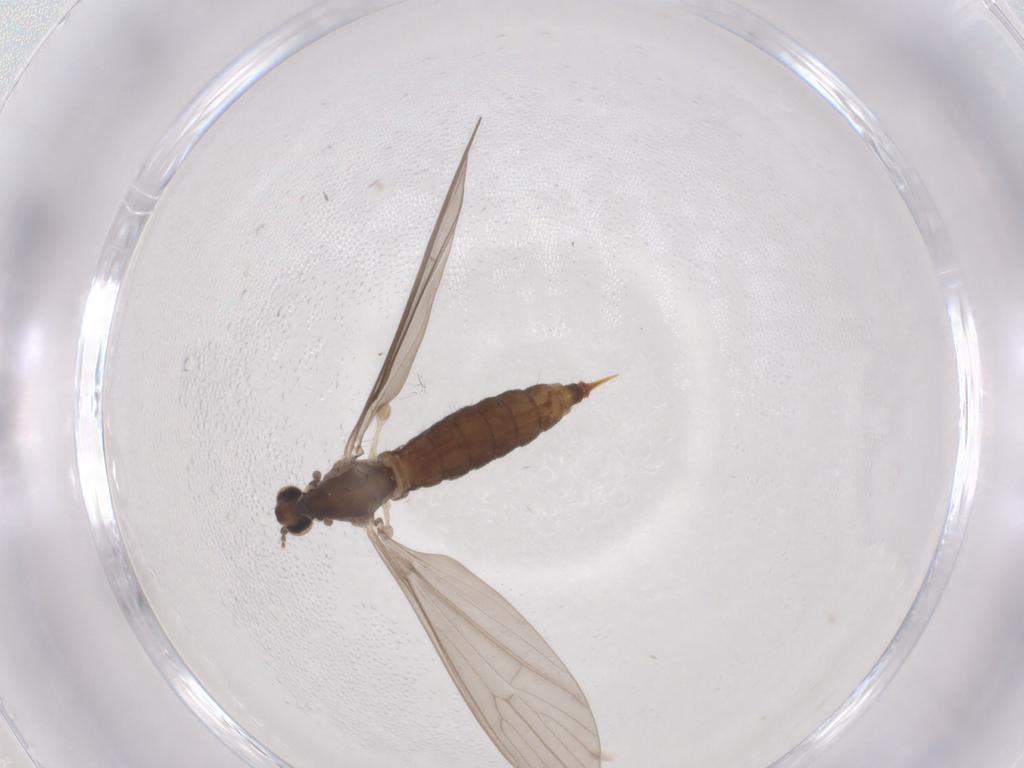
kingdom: Animalia
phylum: Arthropoda
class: Insecta
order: Diptera
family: Limoniidae
